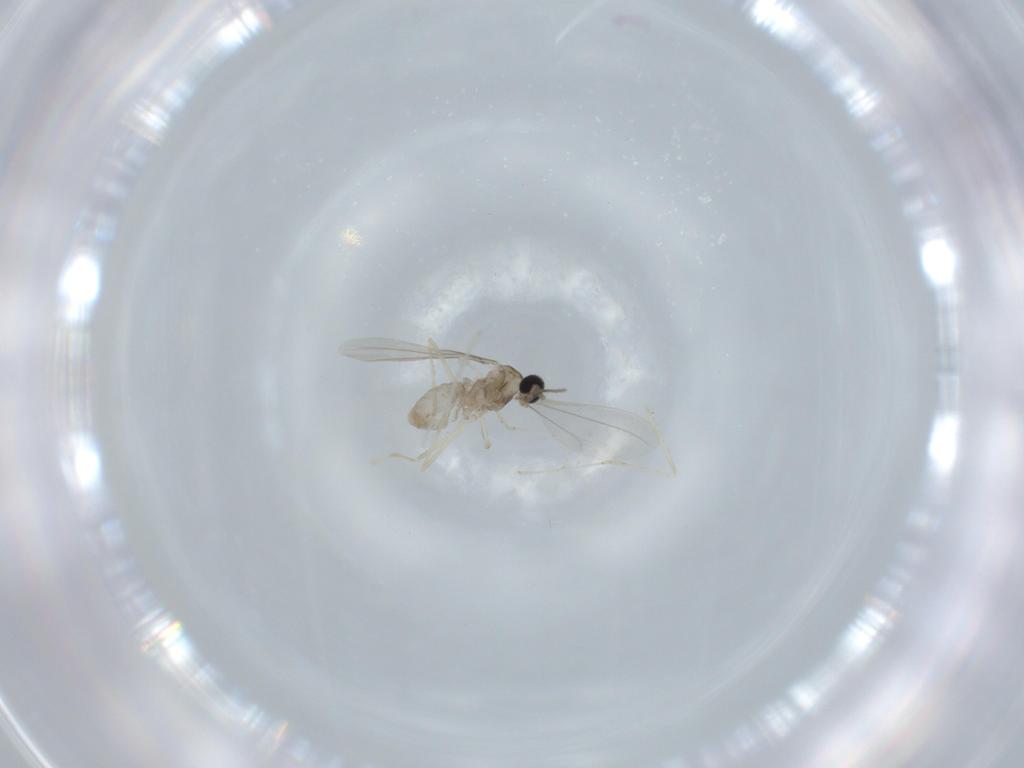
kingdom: Animalia
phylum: Arthropoda
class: Insecta
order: Diptera
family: Cecidomyiidae
